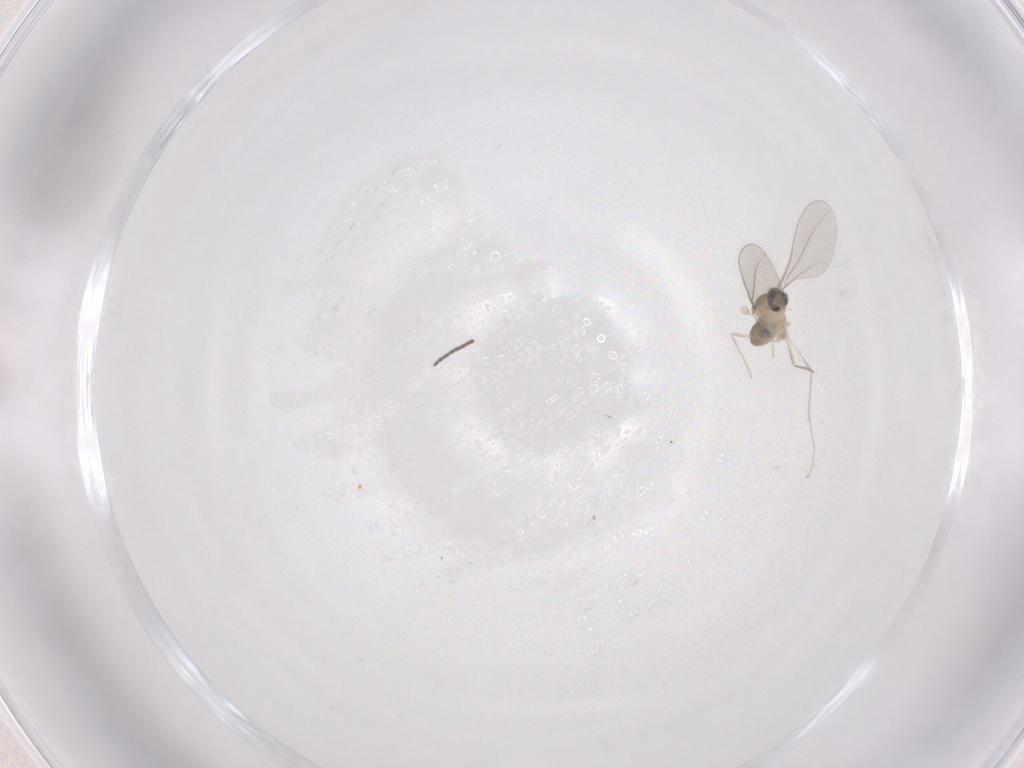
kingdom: Animalia
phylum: Arthropoda
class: Insecta
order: Diptera
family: Cecidomyiidae
